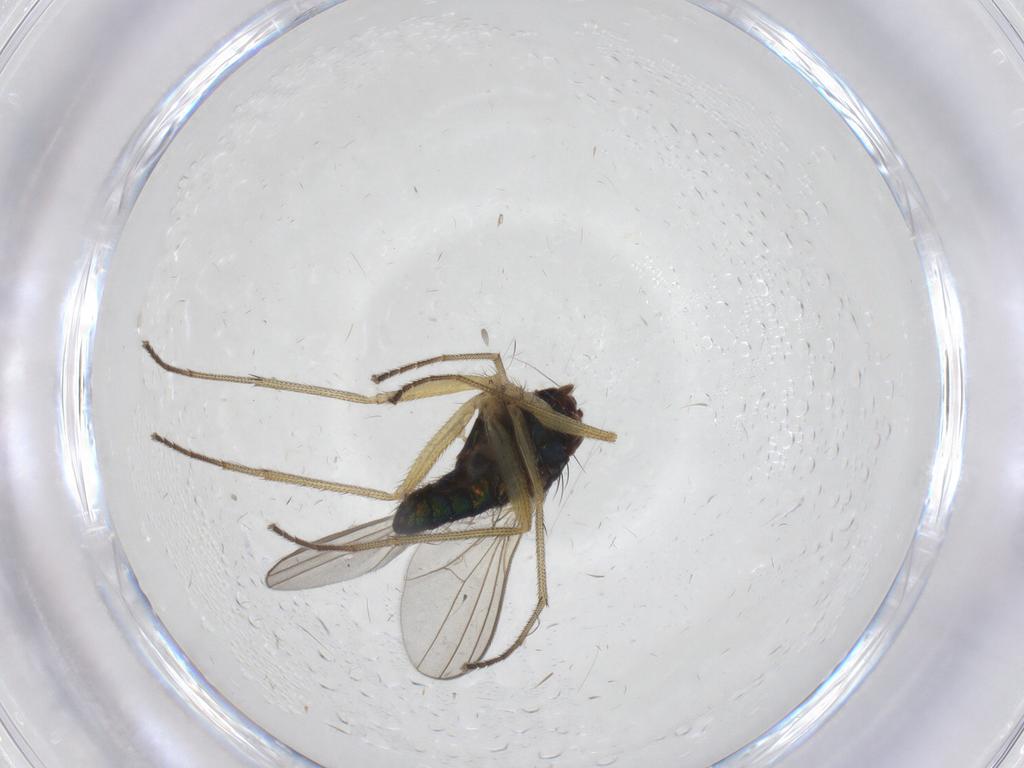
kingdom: Animalia
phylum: Arthropoda
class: Insecta
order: Diptera
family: Dolichopodidae
